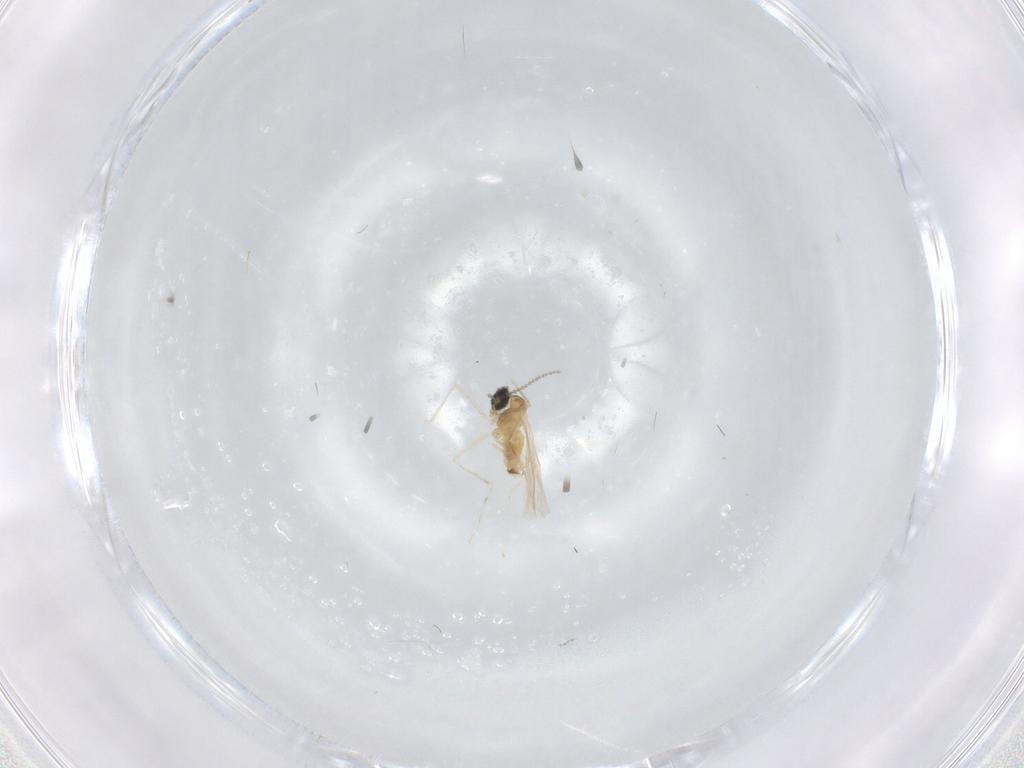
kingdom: Animalia
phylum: Arthropoda
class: Insecta
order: Diptera
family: Cecidomyiidae
